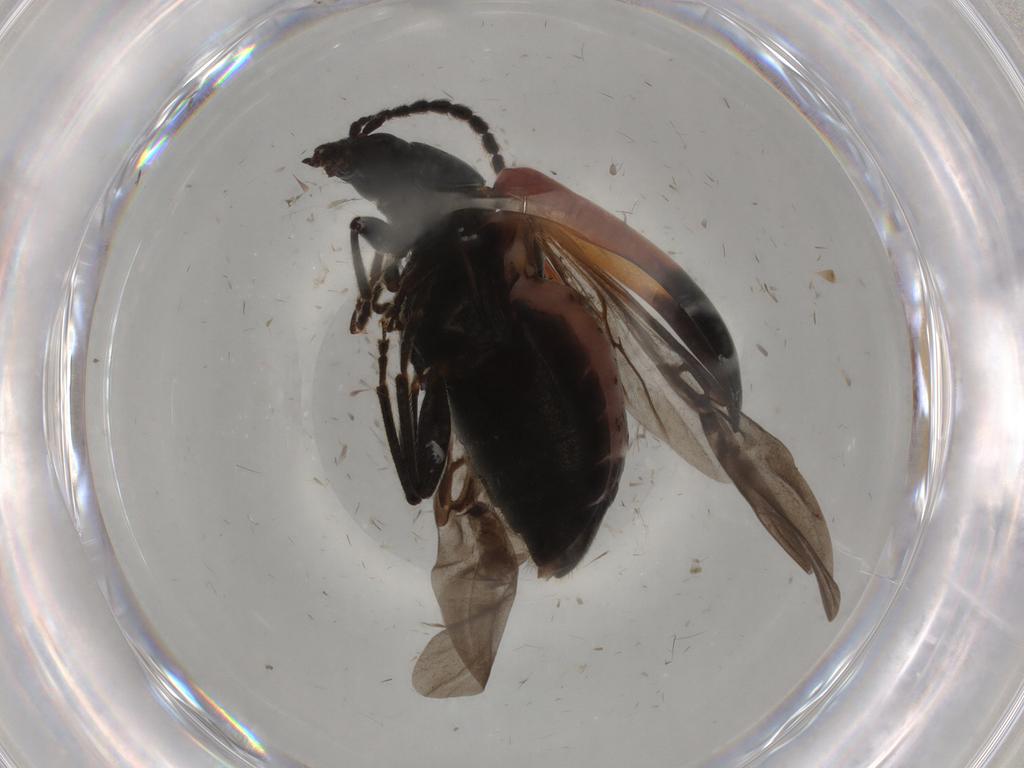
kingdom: Animalia
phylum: Arthropoda
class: Insecta
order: Coleoptera
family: Chrysomelidae
